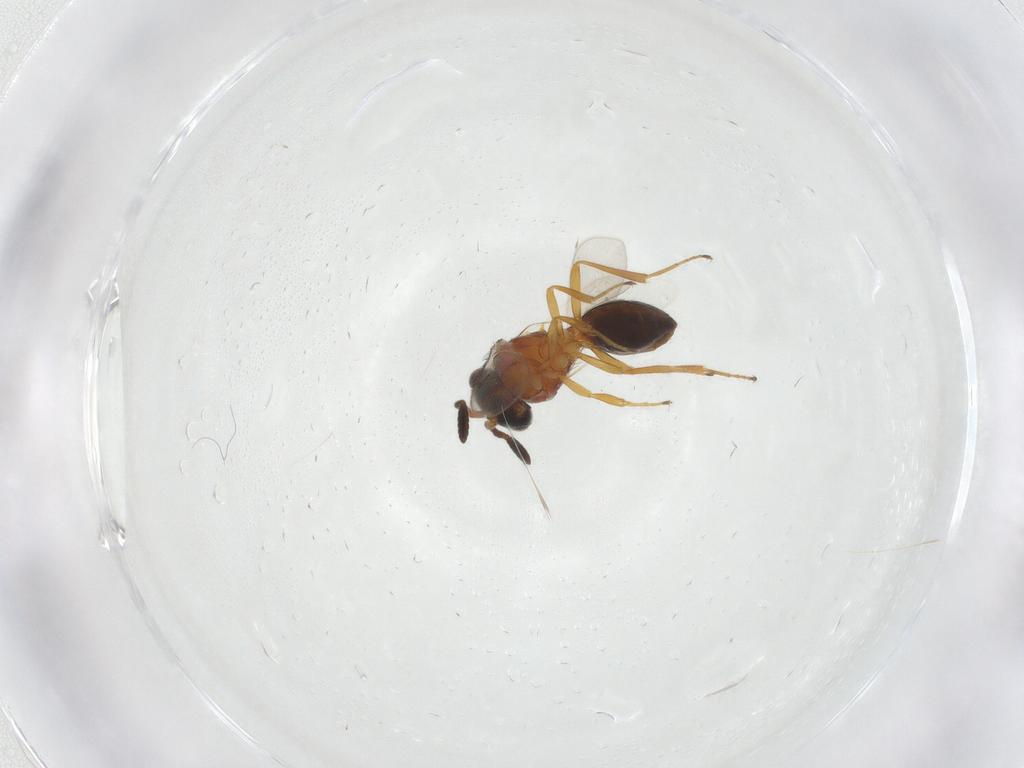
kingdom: Animalia
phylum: Arthropoda
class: Insecta
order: Hymenoptera
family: Scelionidae
